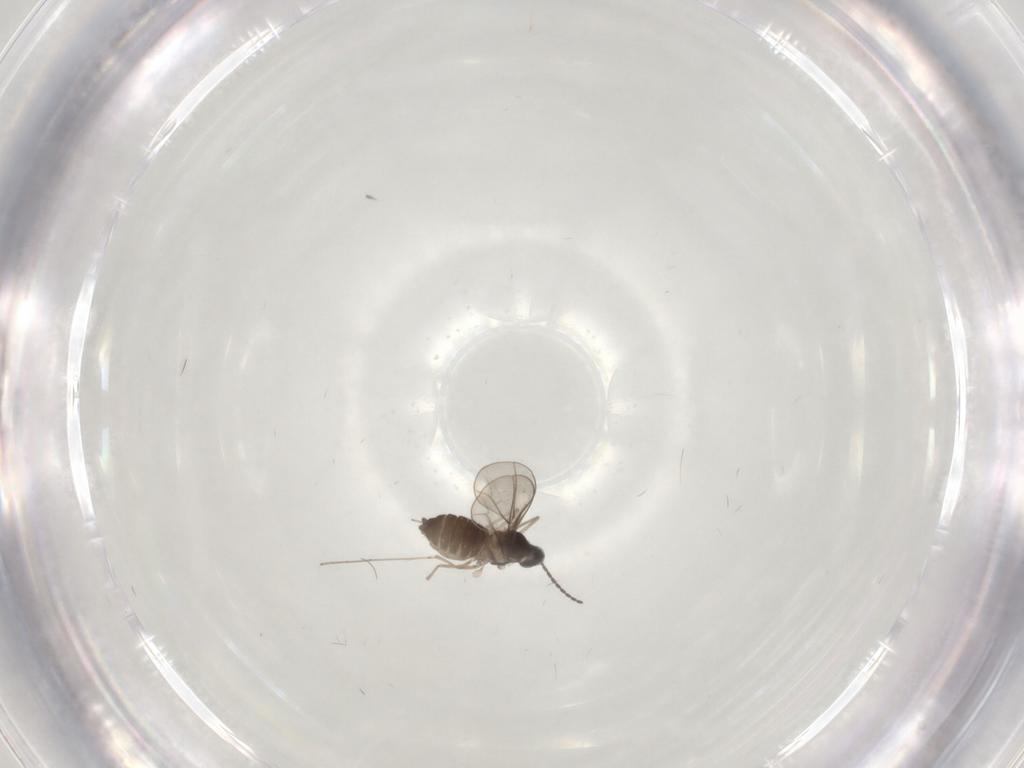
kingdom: Animalia
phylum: Arthropoda
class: Insecta
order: Diptera
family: Cecidomyiidae
